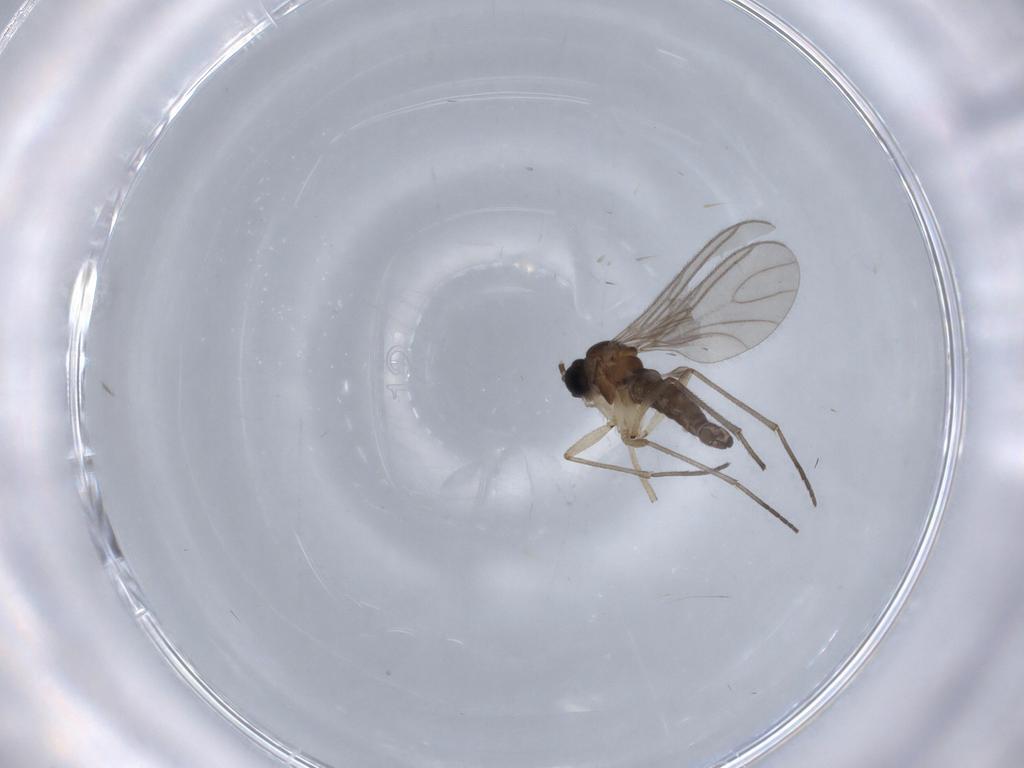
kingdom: Animalia
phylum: Arthropoda
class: Insecta
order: Diptera
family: Sciaridae
